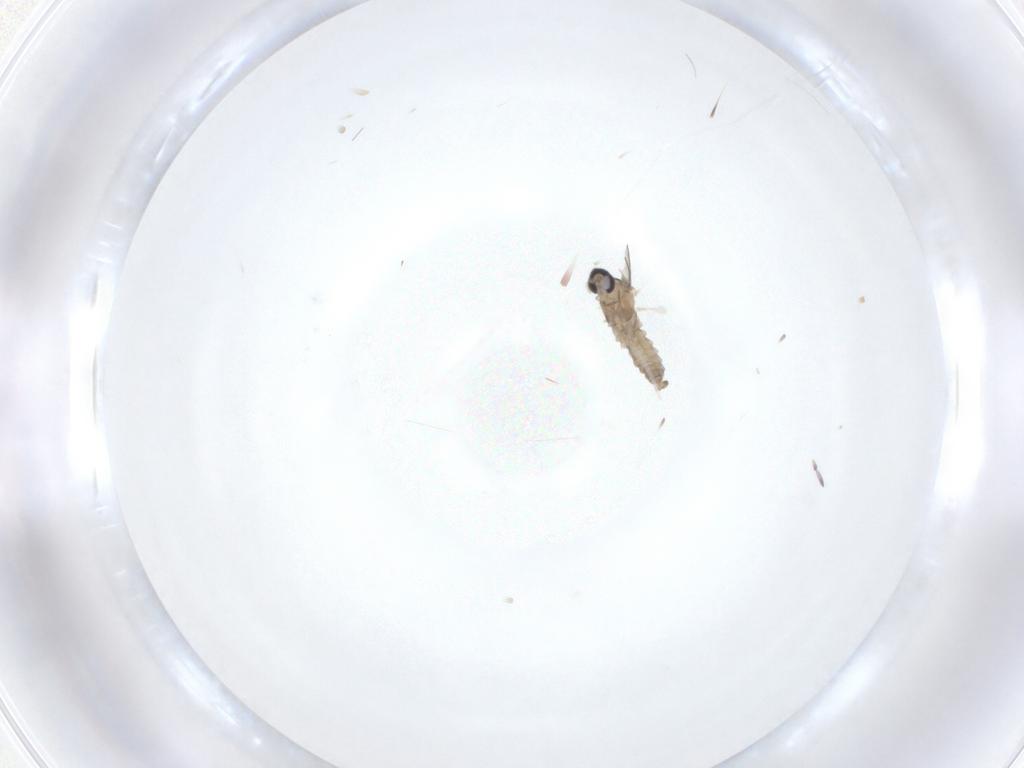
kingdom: Animalia
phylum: Arthropoda
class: Insecta
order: Diptera
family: Cecidomyiidae
